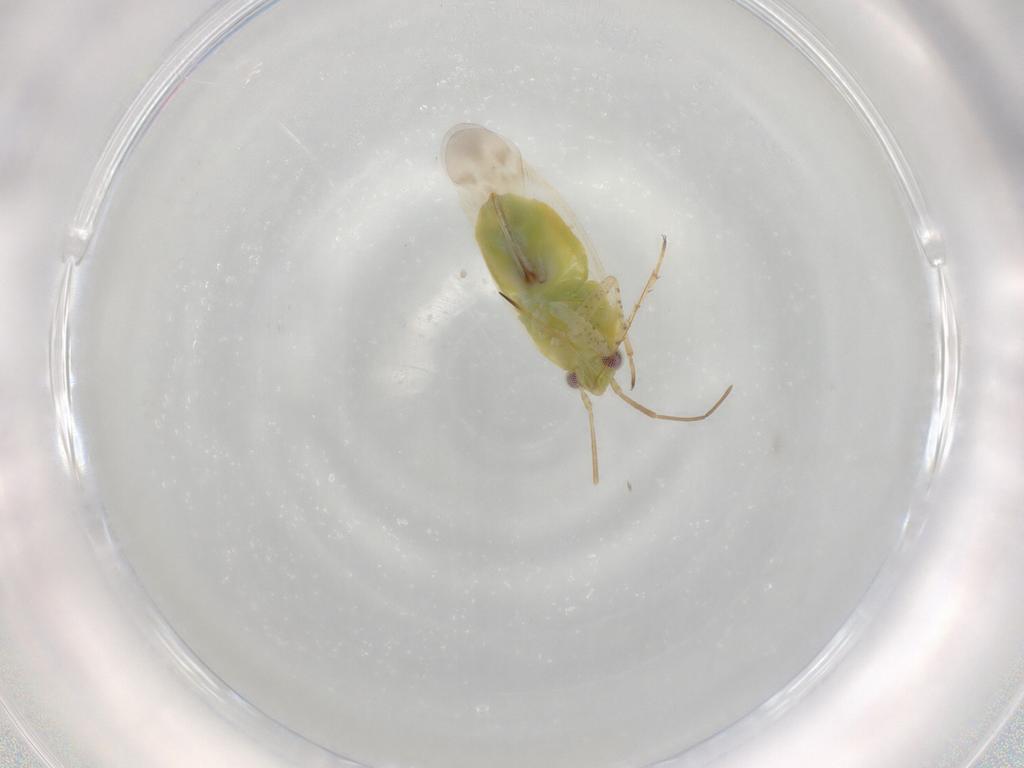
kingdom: Animalia
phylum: Arthropoda
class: Insecta
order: Hemiptera
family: Miridae
